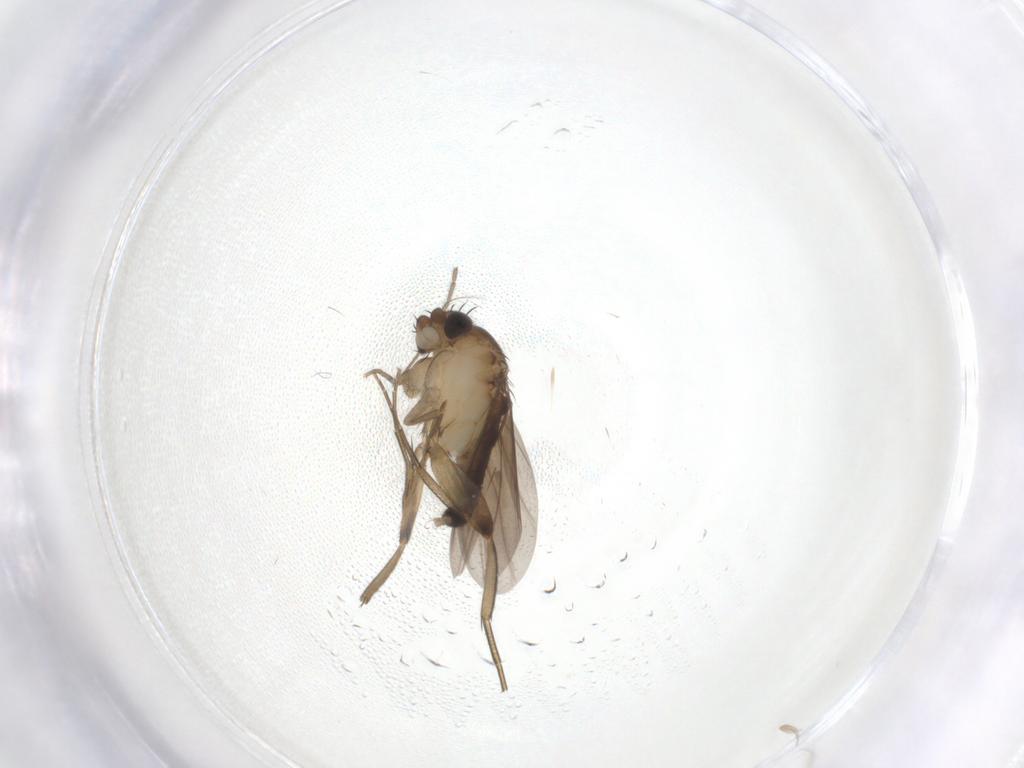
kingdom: Animalia
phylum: Arthropoda
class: Insecta
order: Diptera
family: Phoridae
